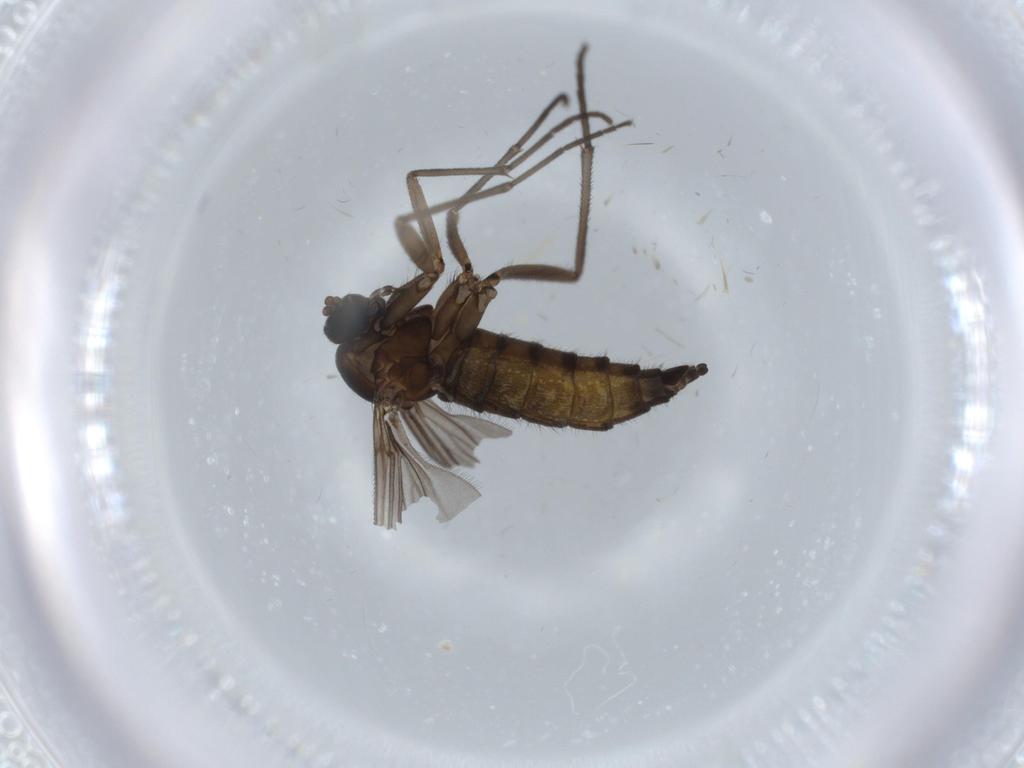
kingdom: Animalia
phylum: Arthropoda
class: Insecta
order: Diptera
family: Sciaridae
